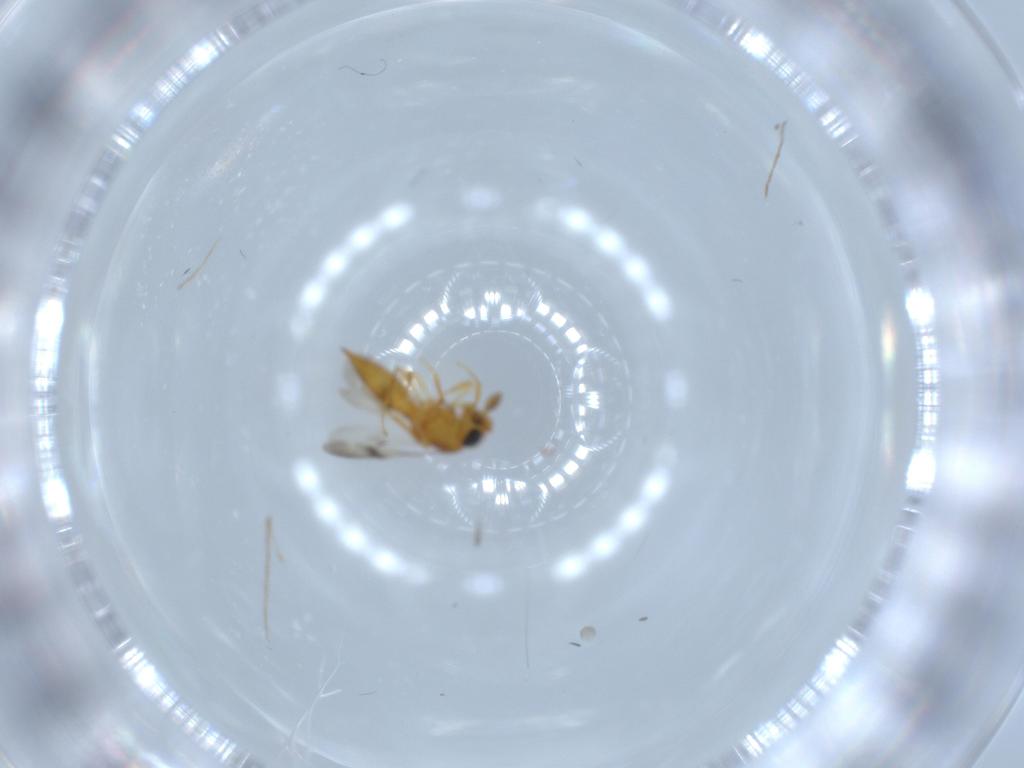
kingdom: Animalia
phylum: Arthropoda
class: Insecta
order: Hymenoptera
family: Scelionidae
